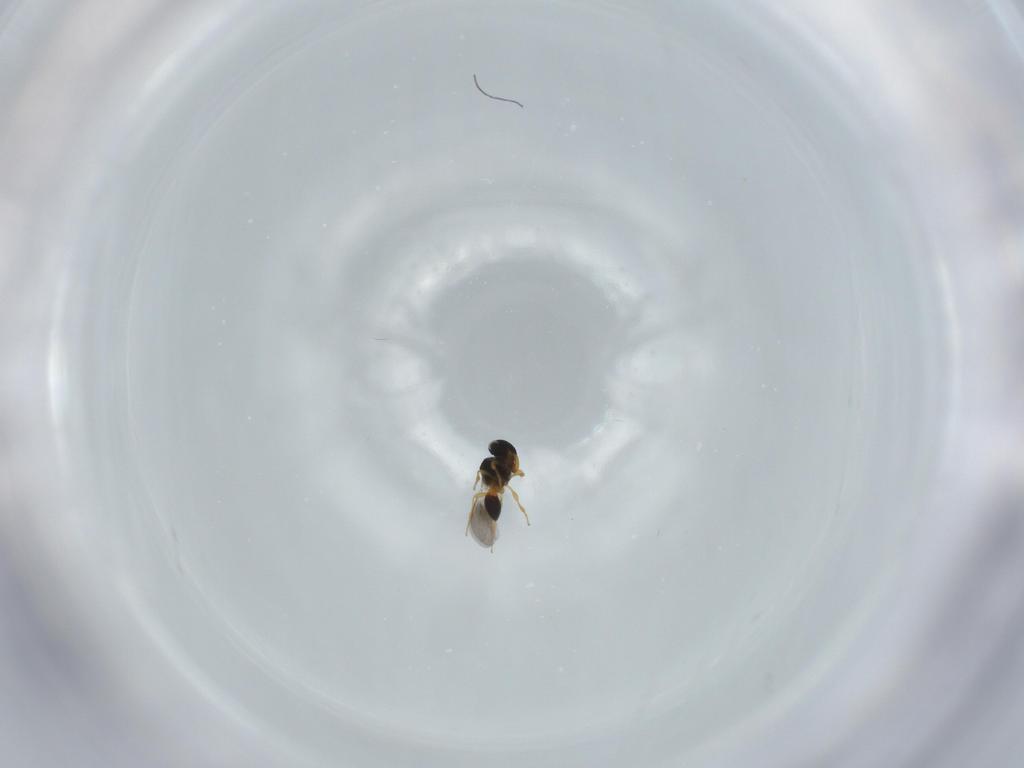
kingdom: Animalia
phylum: Arthropoda
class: Insecta
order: Hymenoptera
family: Platygastridae
